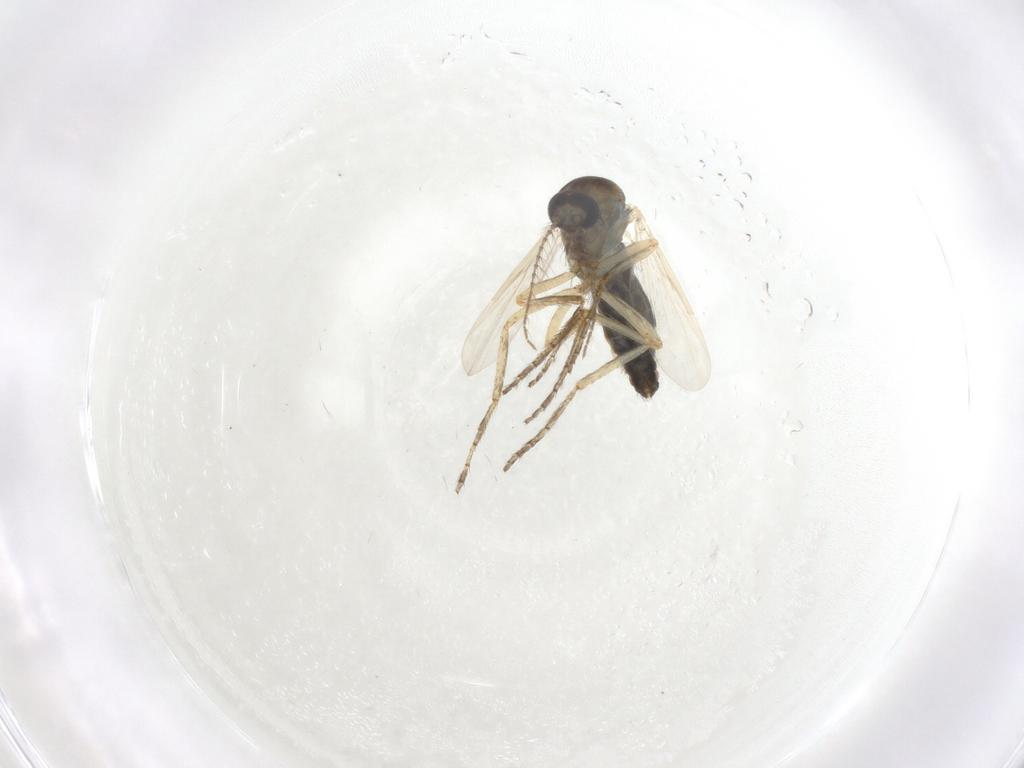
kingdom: Animalia
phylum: Arthropoda
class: Insecta
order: Diptera
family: Ceratopogonidae
